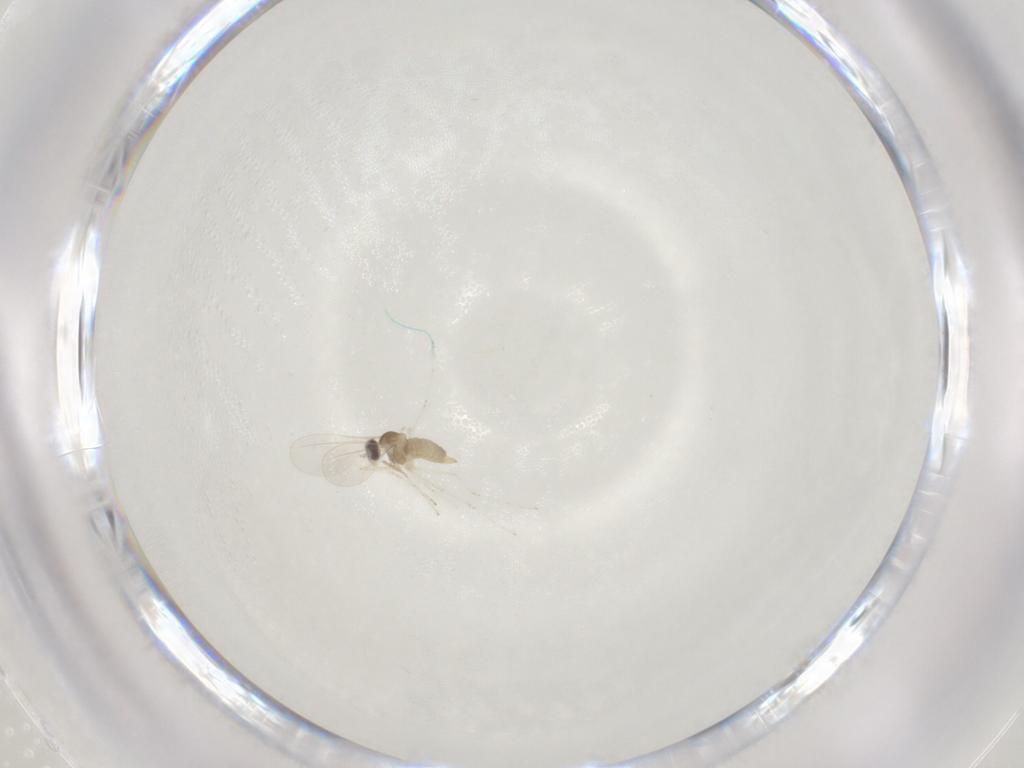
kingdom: Animalia
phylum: Arthropoda
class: Insecta
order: Diptera
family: Cecidomyiidae
